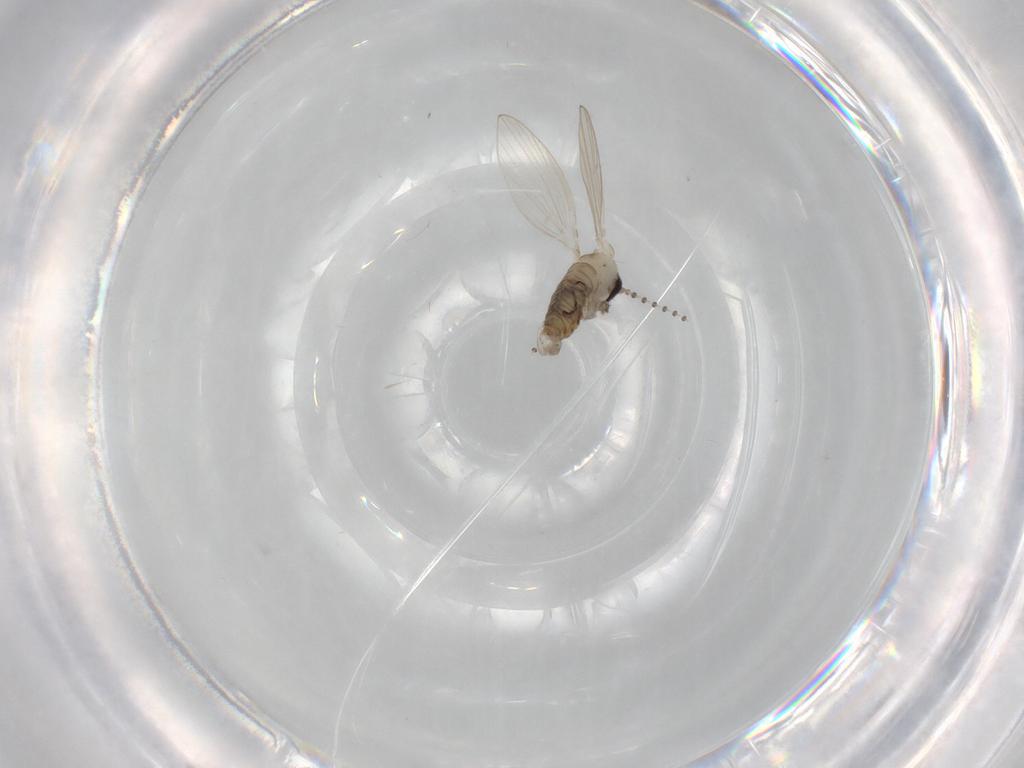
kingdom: Animalia
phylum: Arthropoda
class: Insecta
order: Diptera
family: Psychodidae
